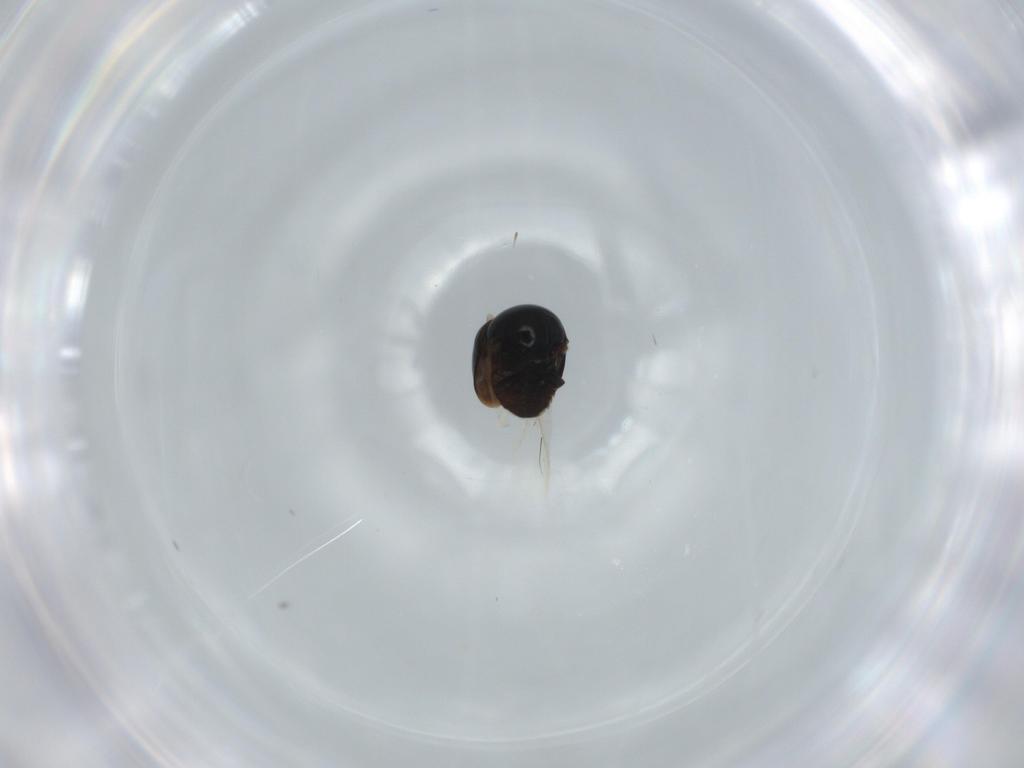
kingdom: Animalia
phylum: Arthropoda
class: Insecta
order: Coleoptera
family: Cybocephalidae
